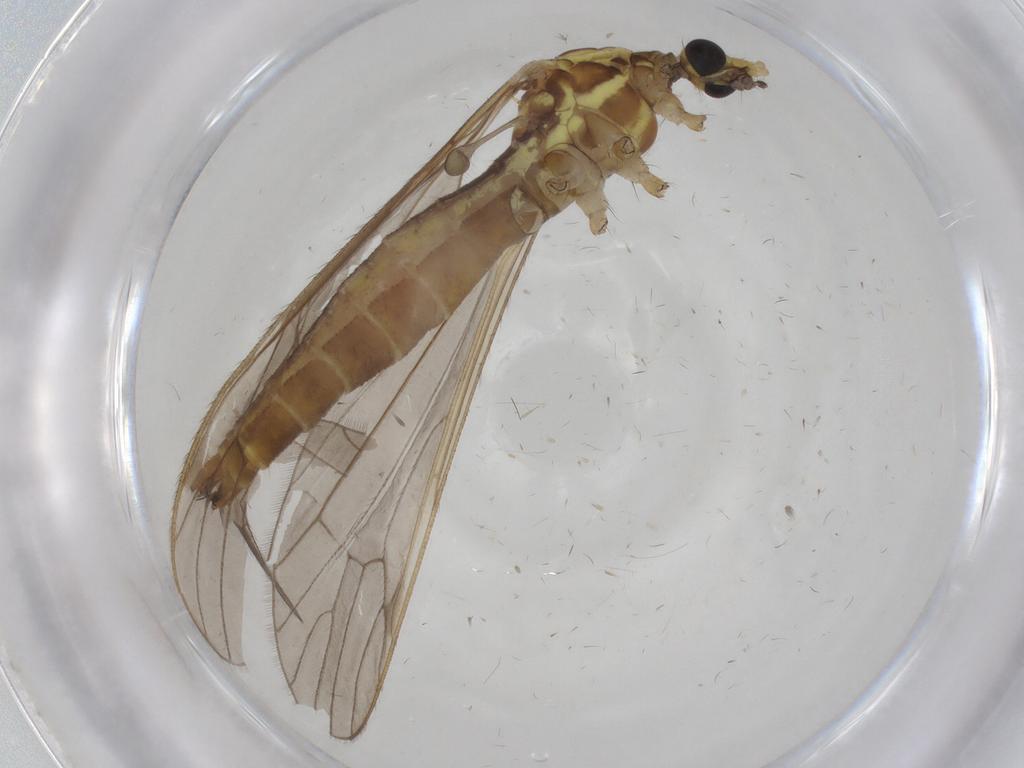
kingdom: Animalia
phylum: Arthropoda
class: Insecta
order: Diptera
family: Limoniidae
